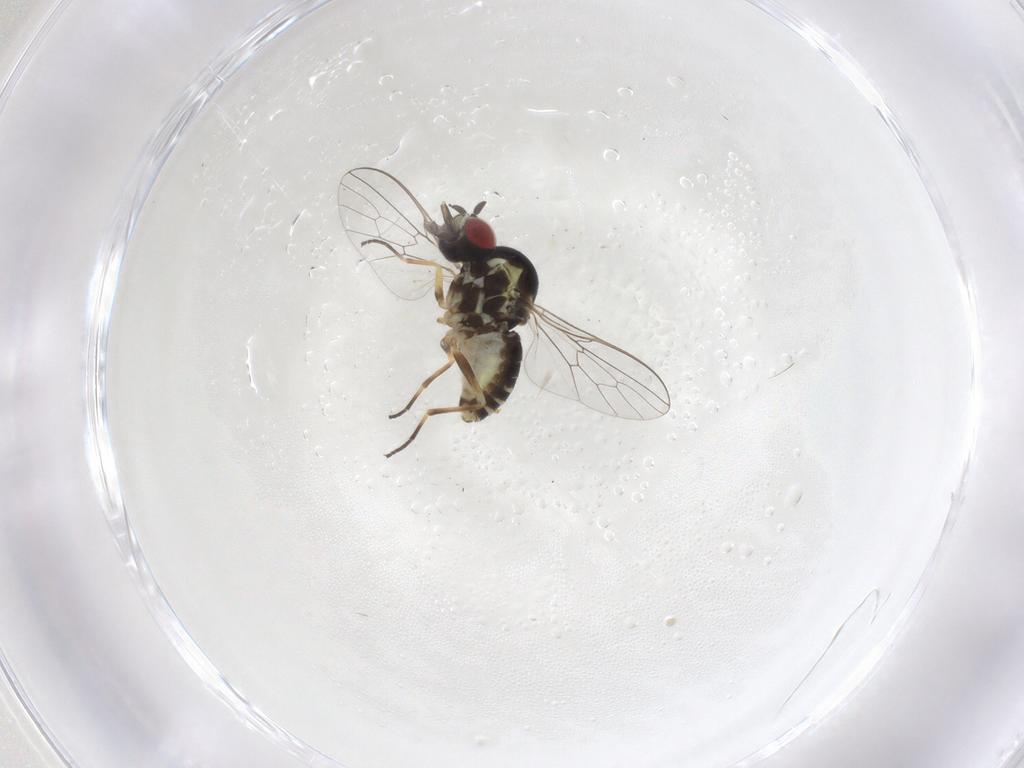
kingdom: Animalia
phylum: Arthropoda
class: Insecta
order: Diptera
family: Bombyliidae
